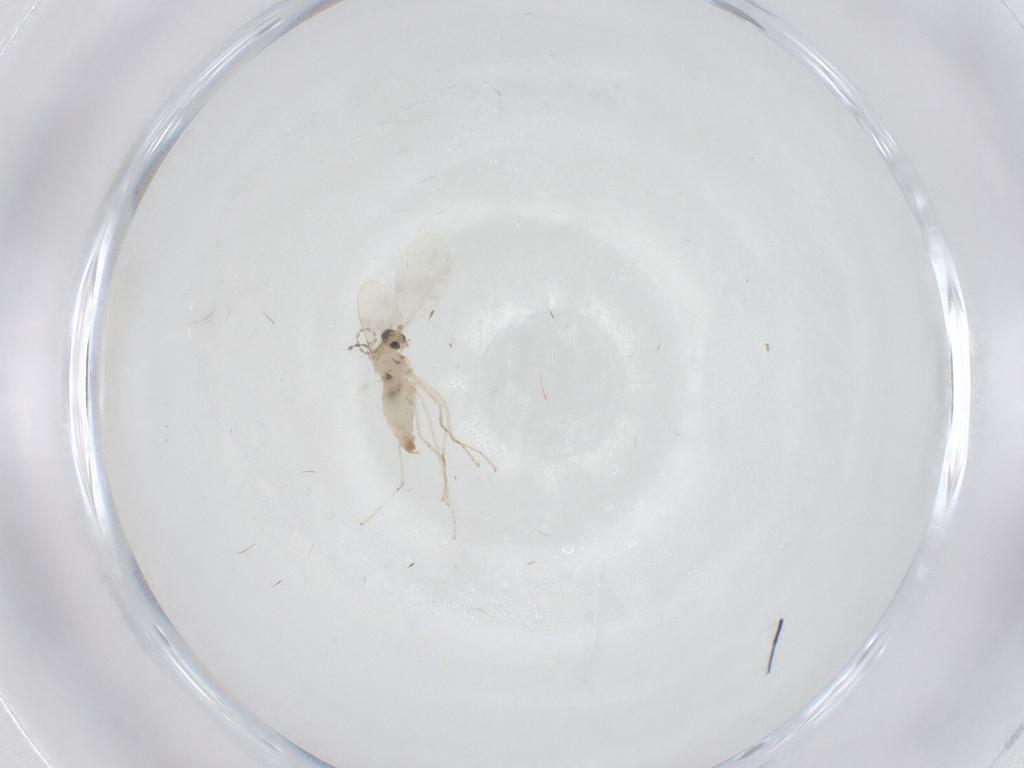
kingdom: Animalia
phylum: Arthropoda
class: Insecta
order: Diptera
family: Cecidomyiidae
